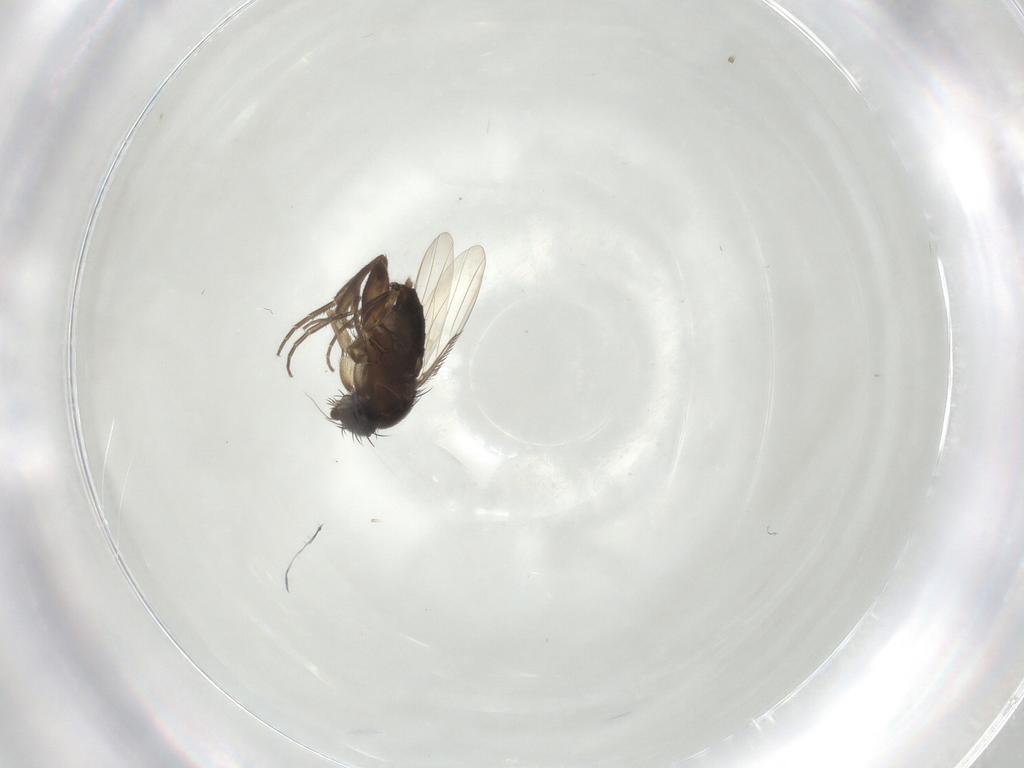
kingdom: Animalia
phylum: Arthropoda
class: Insecta
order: Diptera
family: Phoridae
